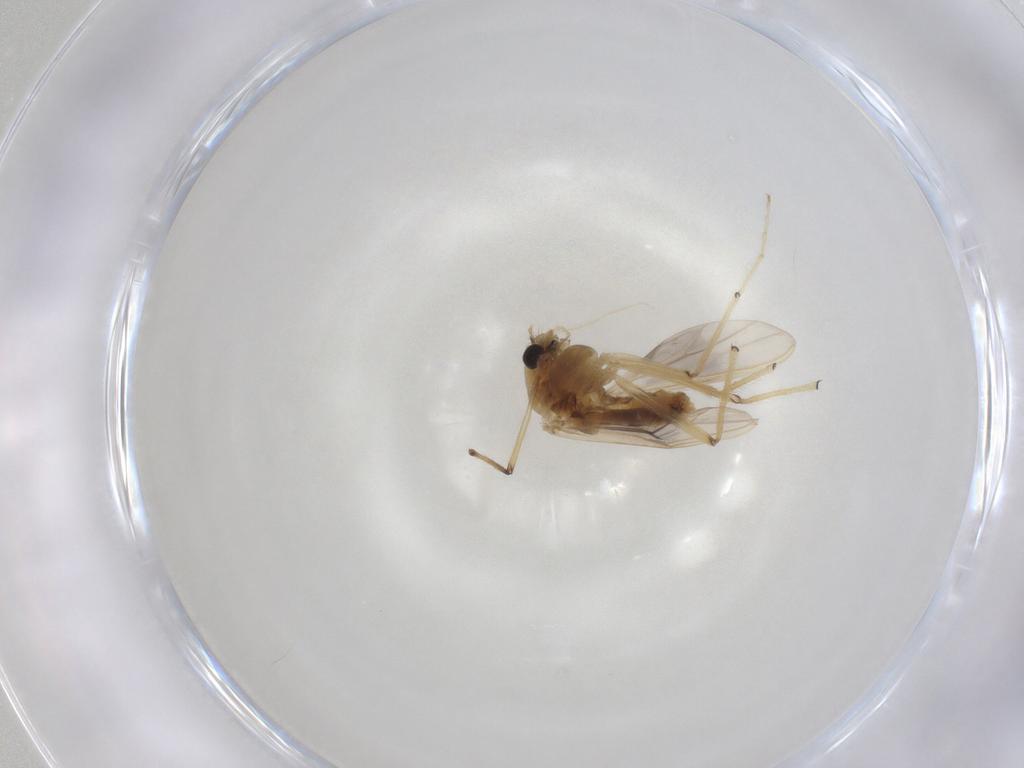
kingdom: Animalia
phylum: Arthropoda
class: Insecta
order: Diptera
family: Chironomidae
